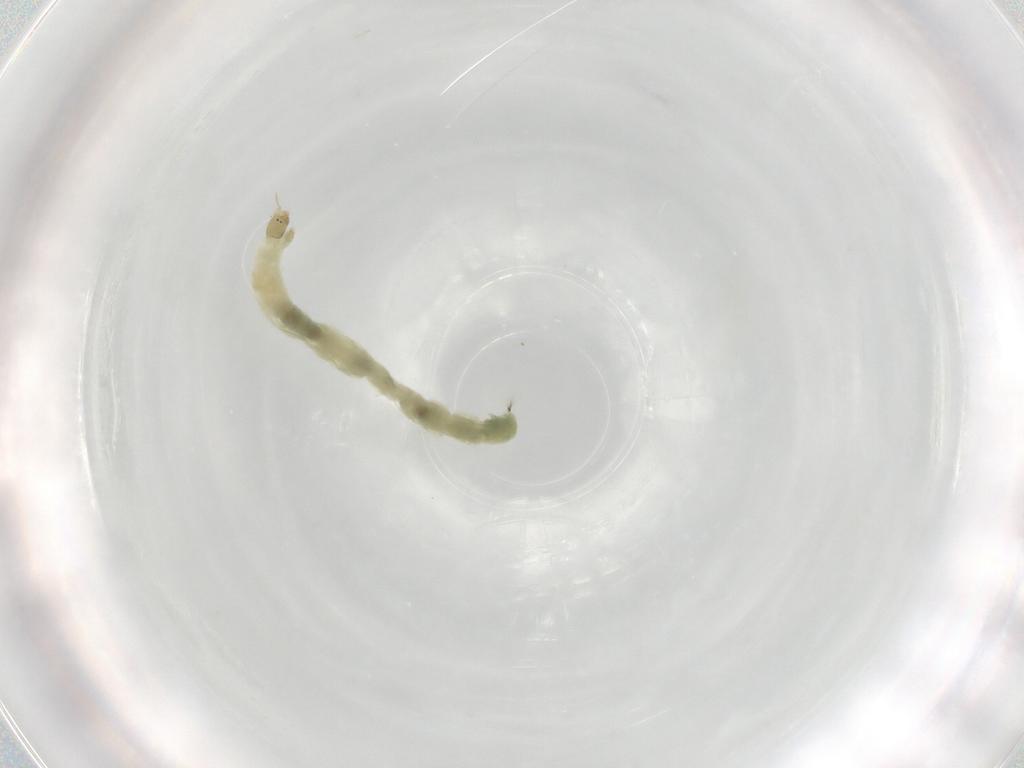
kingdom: Animalia
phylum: Arthropoda
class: Insecta
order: Diptera
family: Chironomidae
